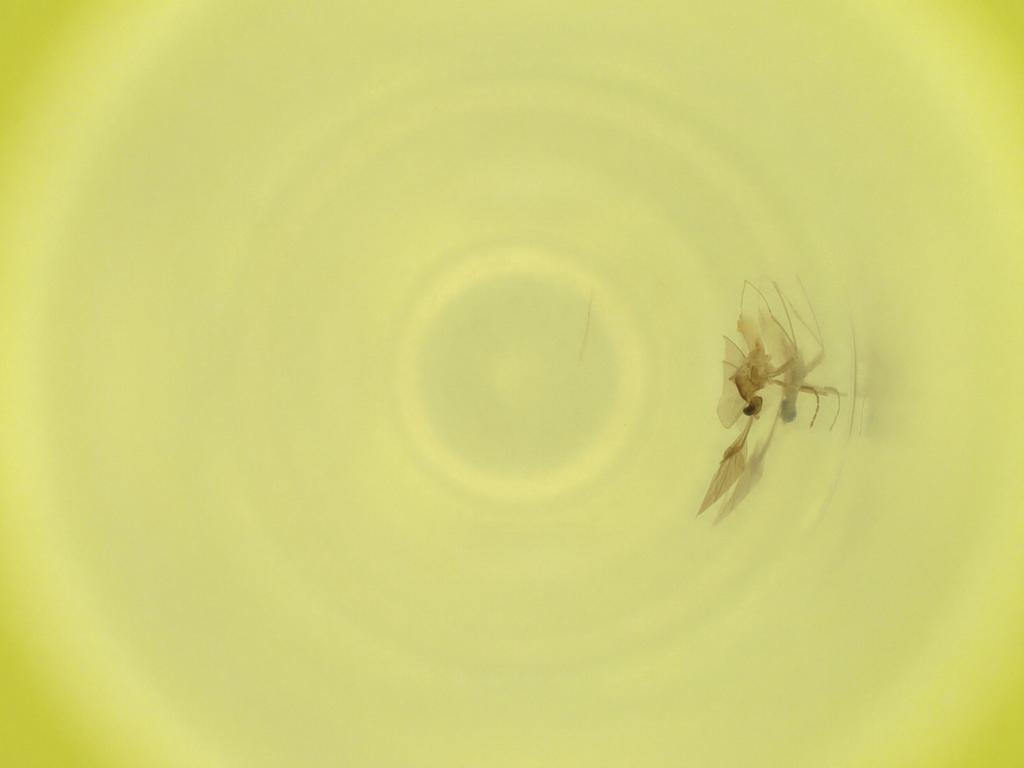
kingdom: Animalia
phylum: Arthropoda
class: Insecta
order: Diptera
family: Cecidomyiidae
